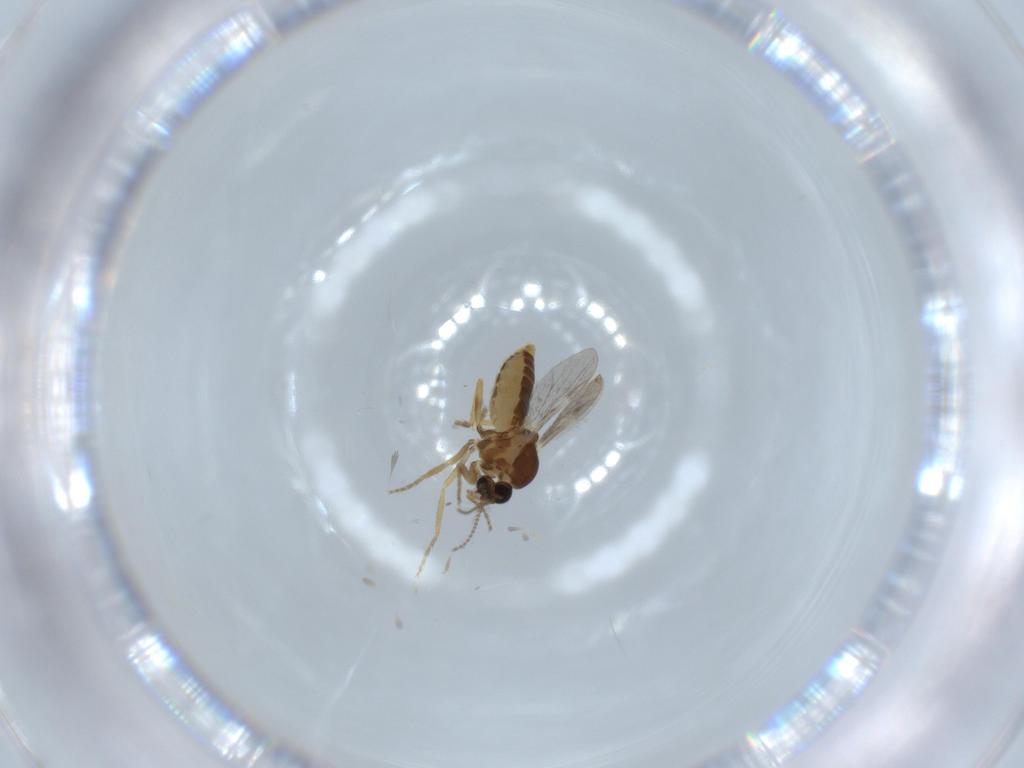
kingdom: Animalia
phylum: Arthropoda
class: Insecta
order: Diptera
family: Ceratopogonidae
